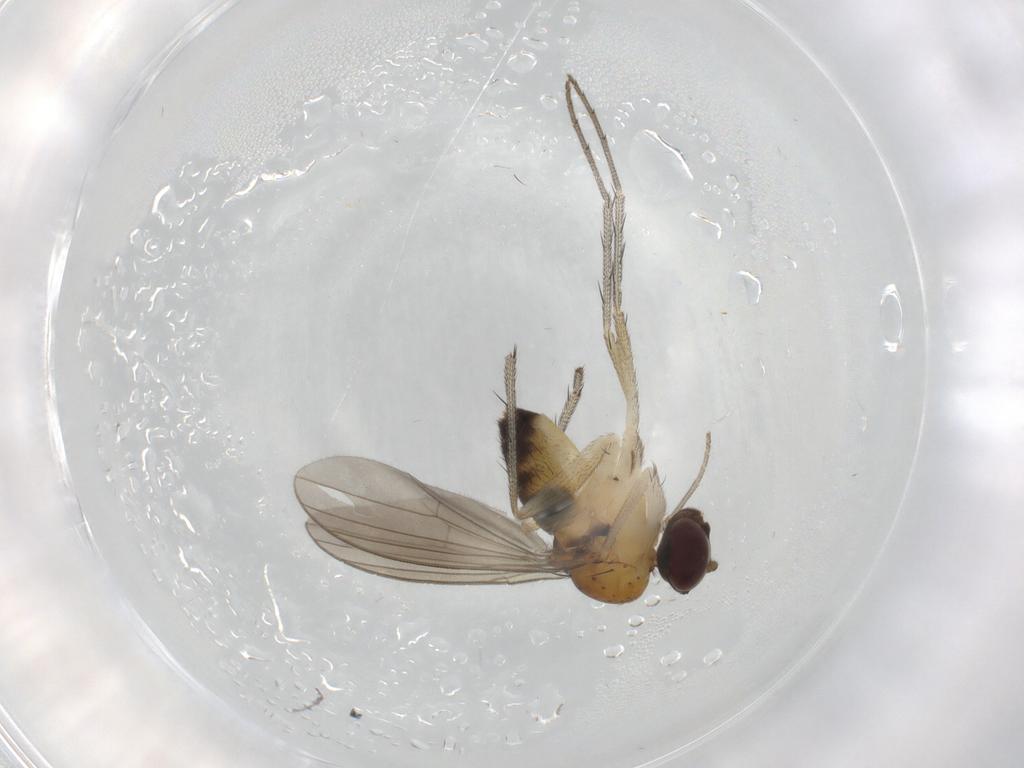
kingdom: Animalia
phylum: Arthropoda
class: Insecta
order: Diptera
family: Dolichopodidae
